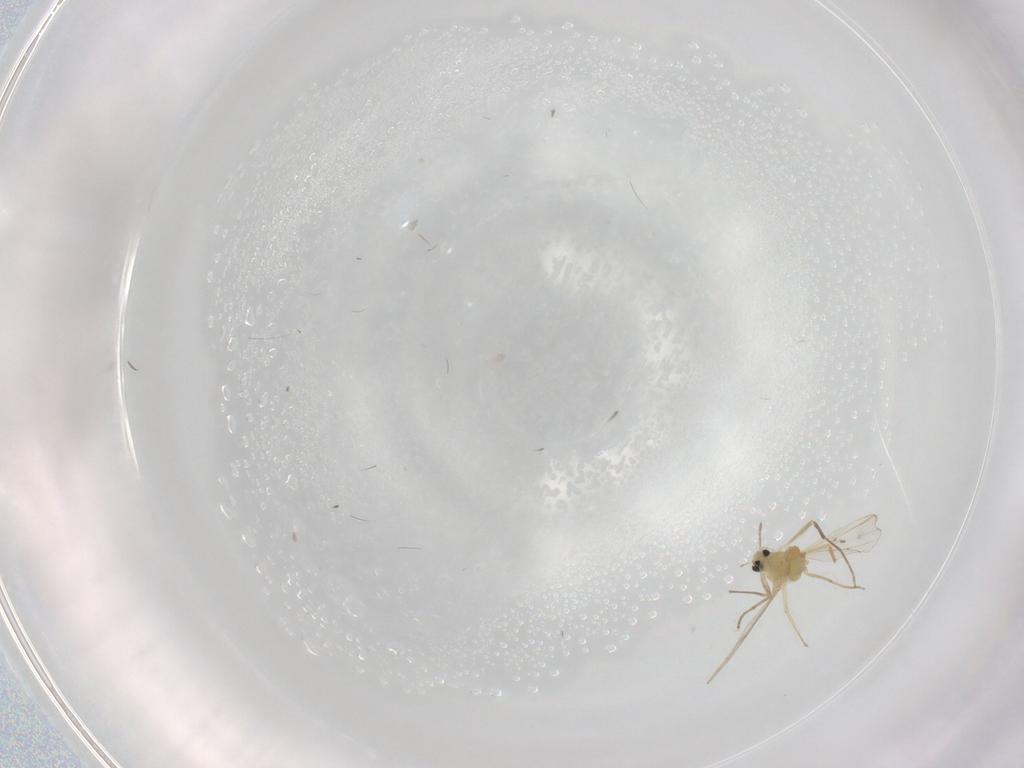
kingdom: Animalia
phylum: Arthropoda
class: Insecta
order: Diptera
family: Chironomidae
